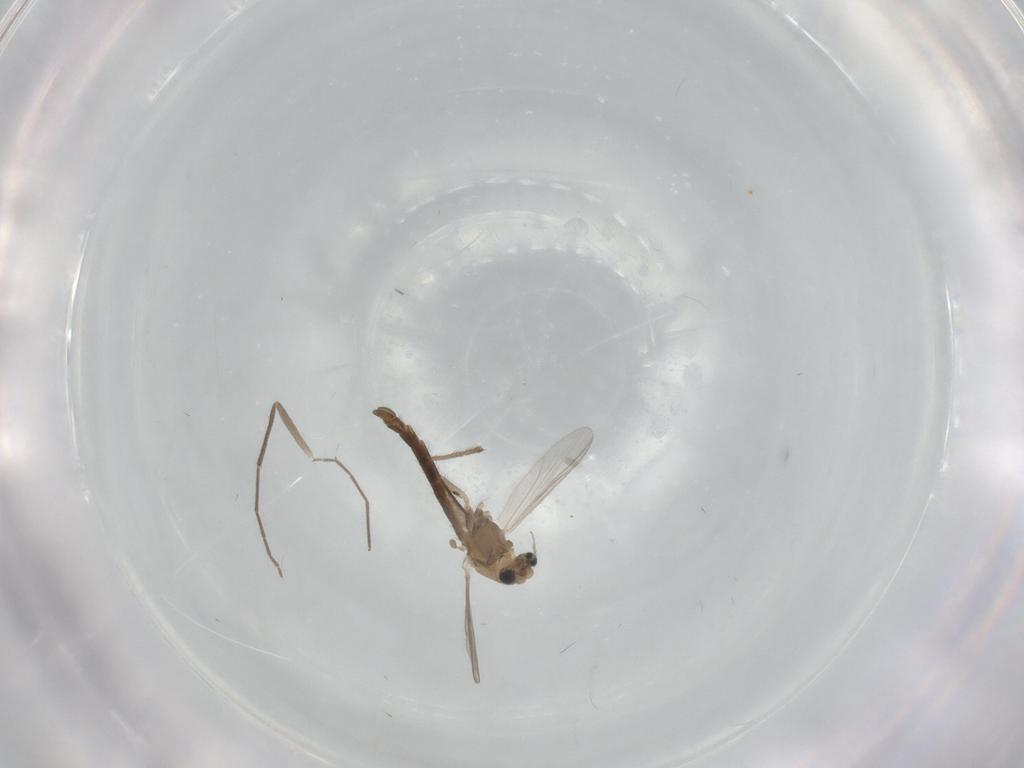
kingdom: Animalia
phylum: Arthropoda
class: Insecta
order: Diptera
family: Chironomidae
